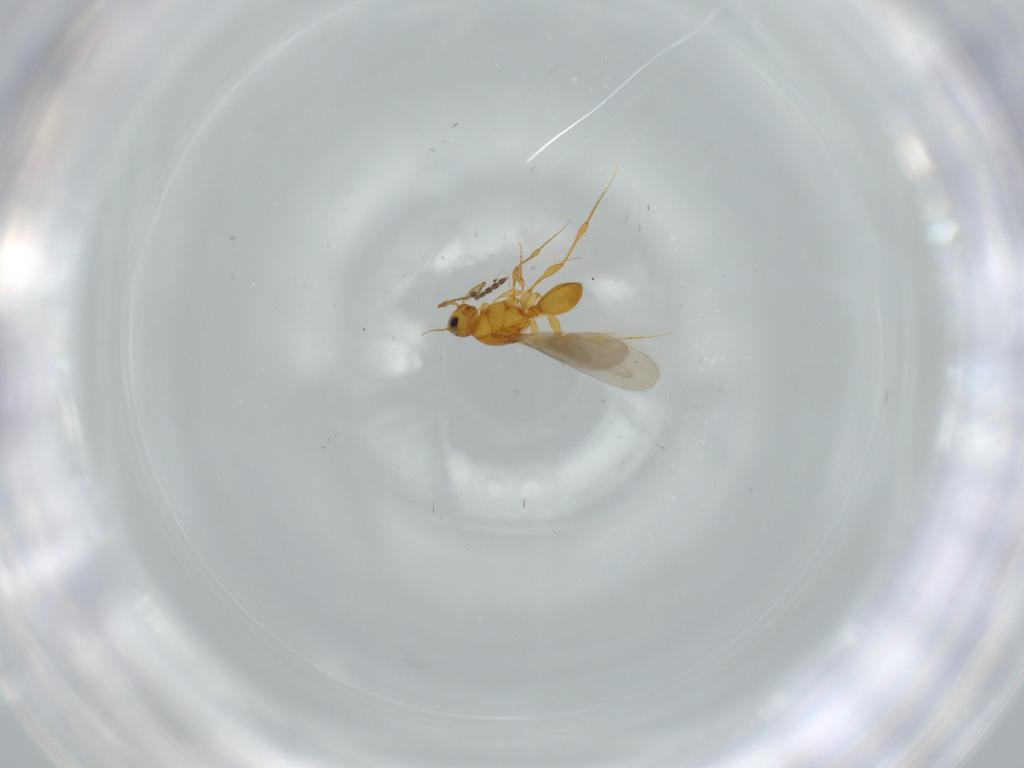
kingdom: Animalia
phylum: Arthropoda
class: Insecta
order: Hymenoptera
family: Platygastridae
